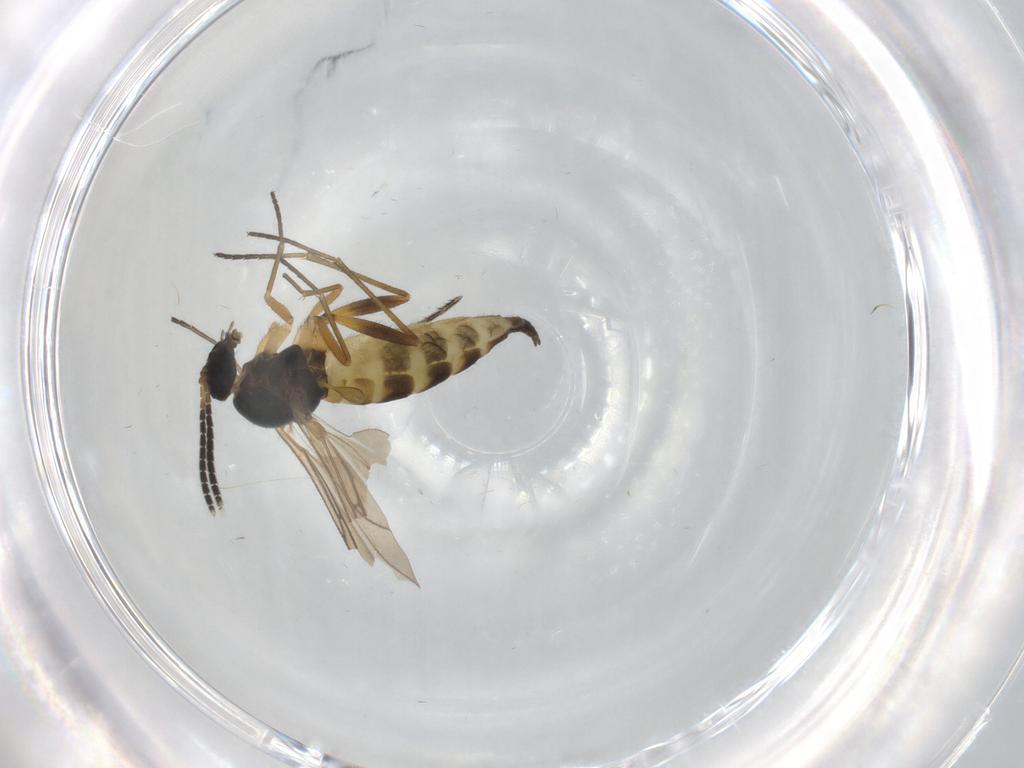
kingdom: Animalia
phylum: Arthropoda
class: Insecta
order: Diptera
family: Sciaridae
